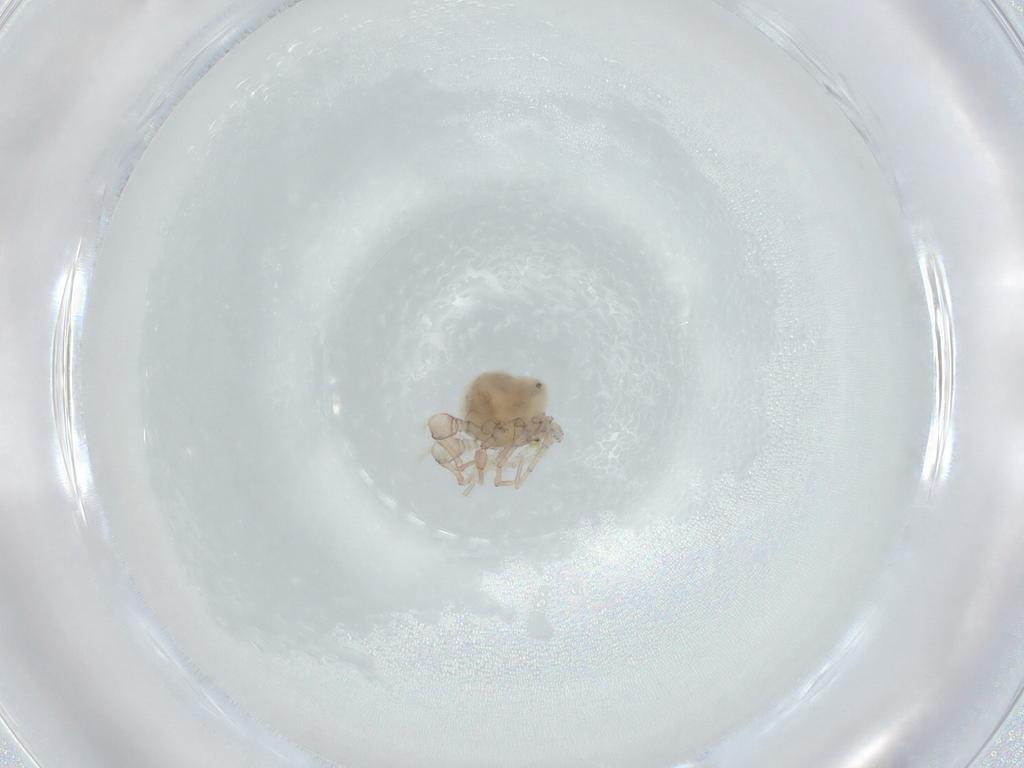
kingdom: Animalia
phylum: Arthropoda
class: Arachnida
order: Trombidiformes
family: Pionidae
